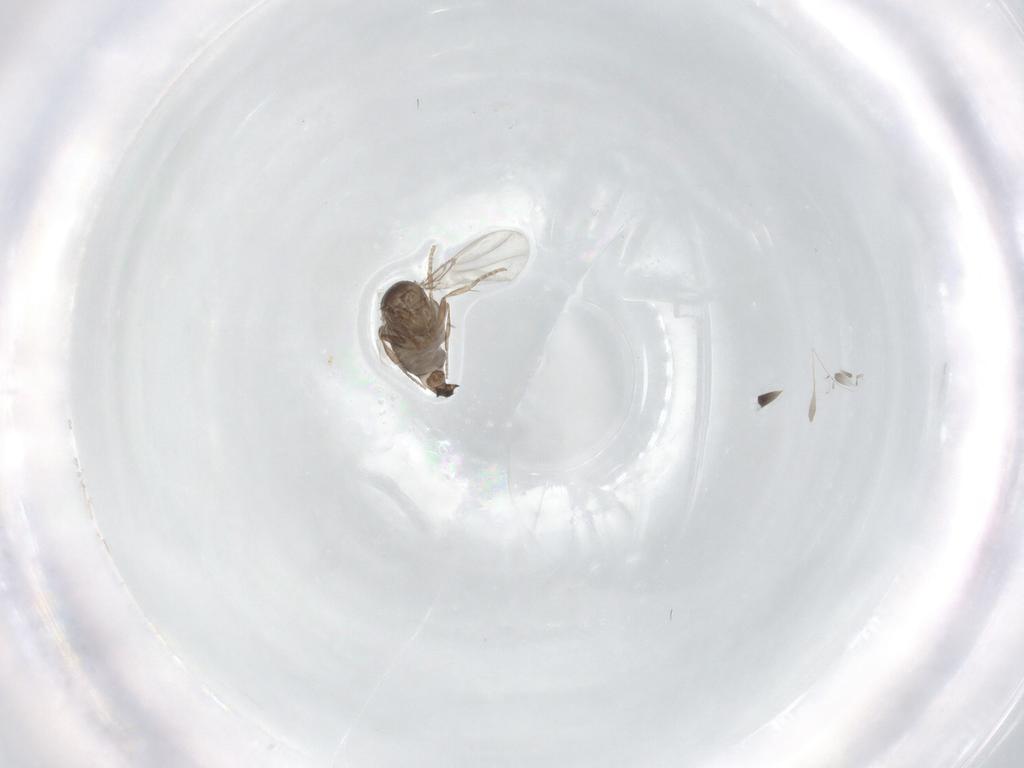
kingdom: Animalia
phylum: Arthropoda
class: Insecta
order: Diptera
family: Phoridae
